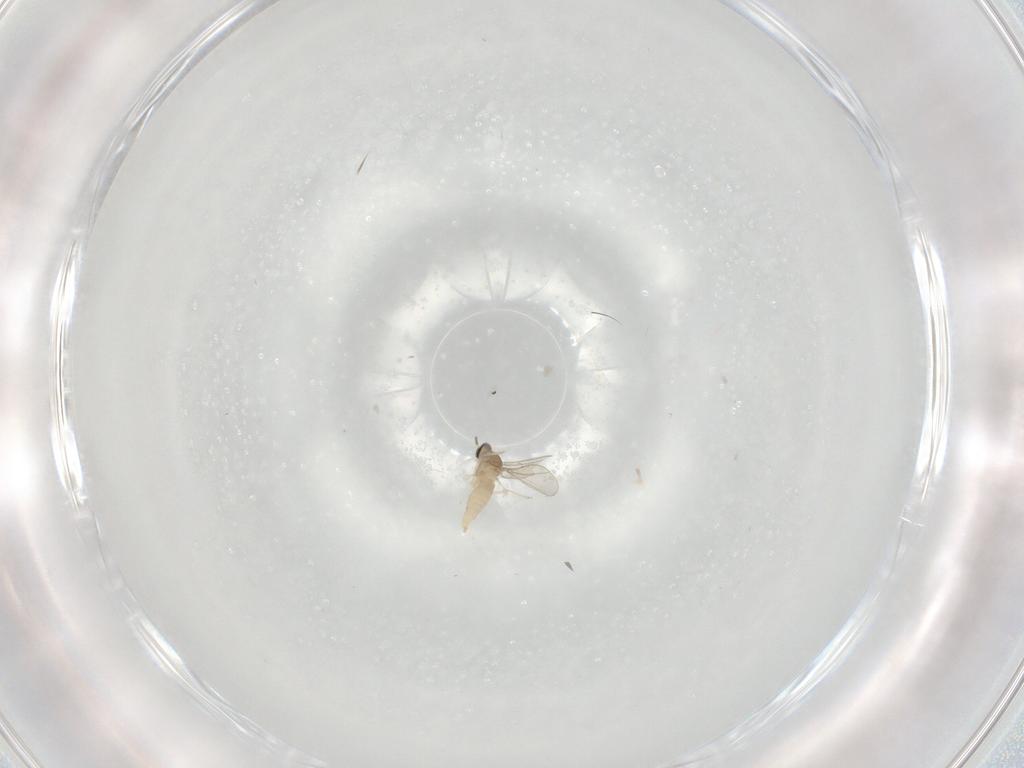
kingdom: Animalia
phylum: Arthropoda
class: Insecta
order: Diptera
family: Cecidomyiidae
